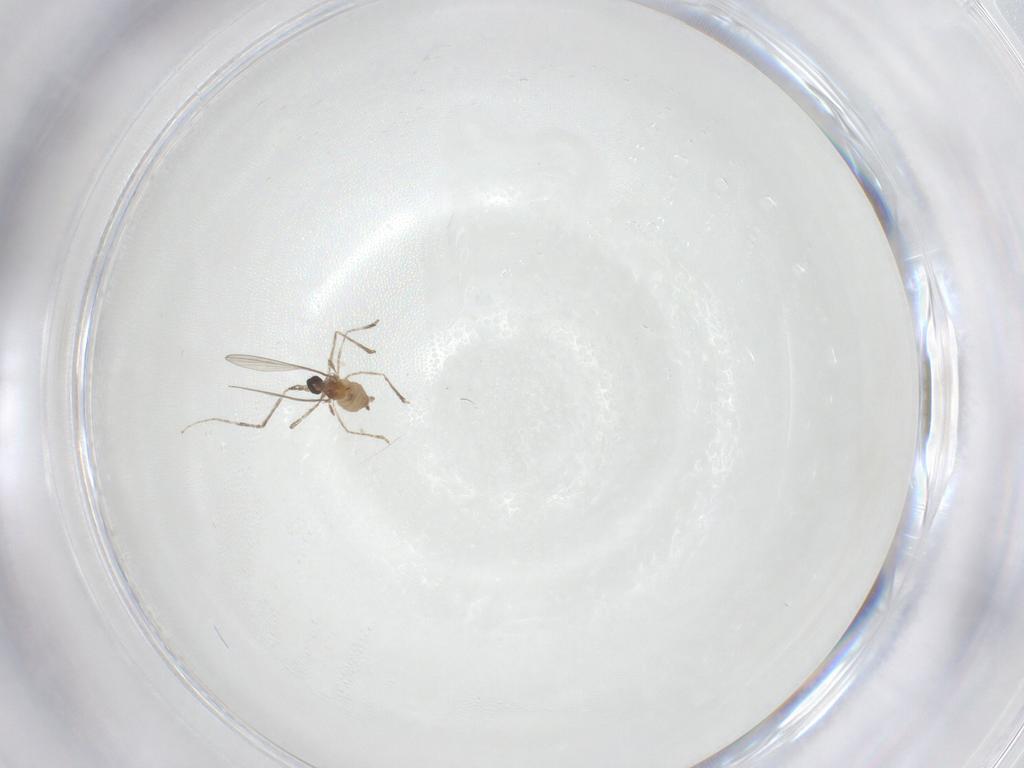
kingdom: Animalia
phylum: Arthropoda
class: Insecta
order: Diptera
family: Cecidomyiidae
